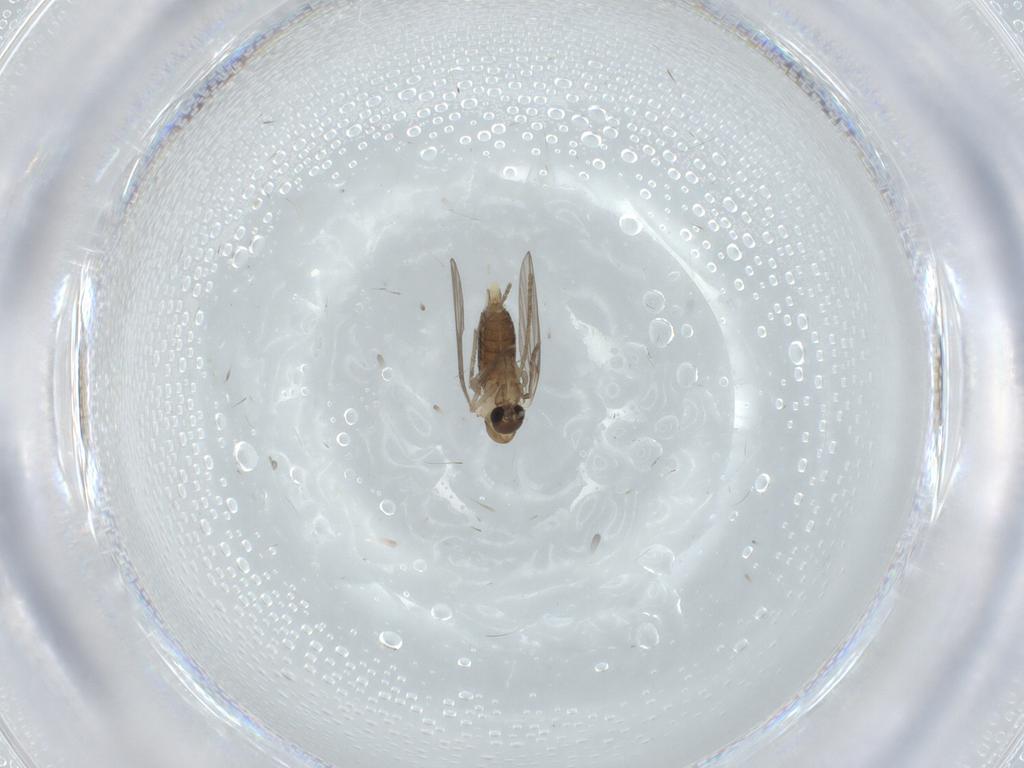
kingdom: Animalia
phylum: Arthropoda
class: Insecta
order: Diptera
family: Psychodidae
